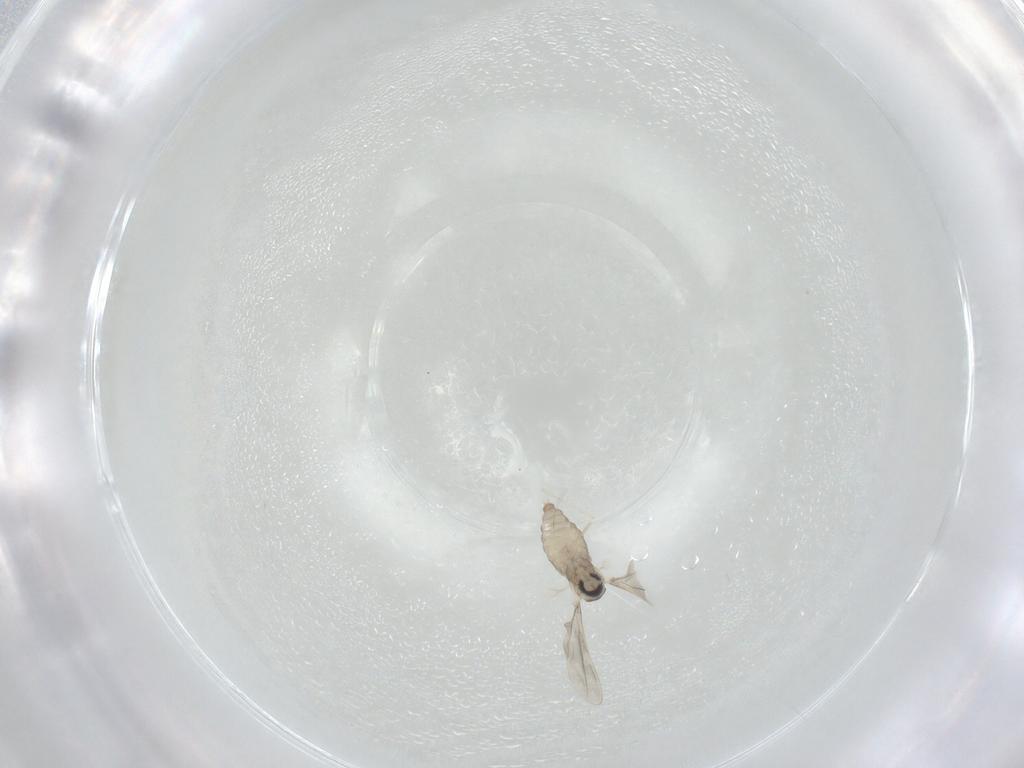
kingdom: Animalia
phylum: Arthropoda
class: Insecta
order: Diptera
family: Cecidomyiidae
